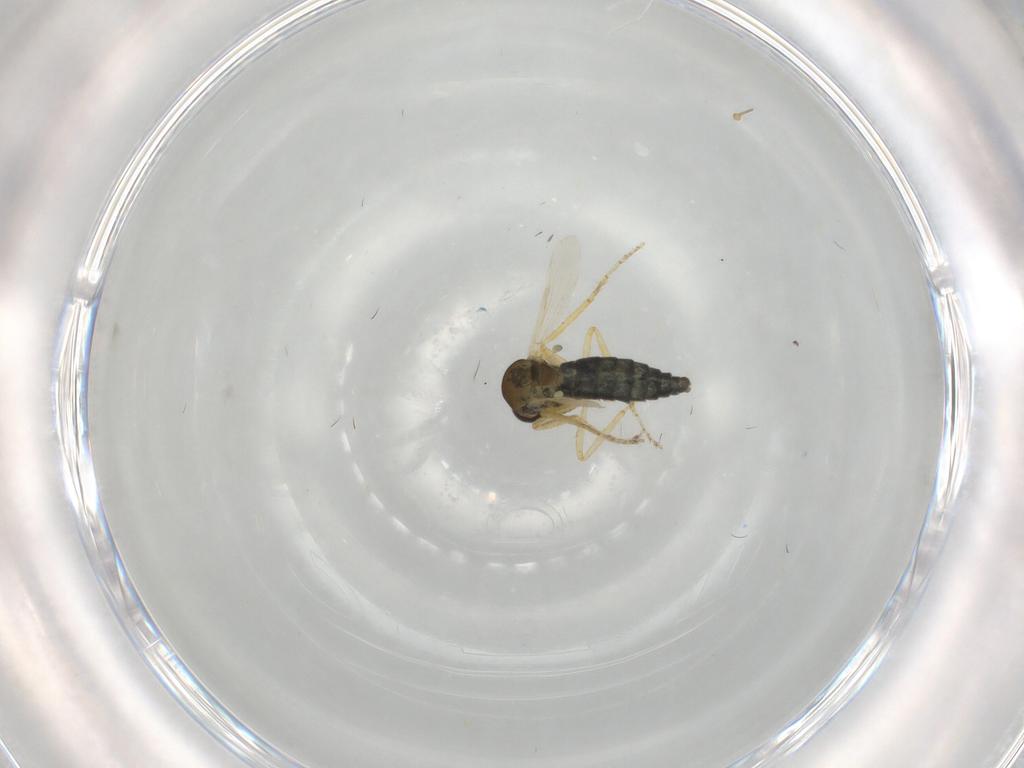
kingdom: Animalia
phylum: Arthropoda
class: Insecta
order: Diptera
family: Ceratopogonidae
